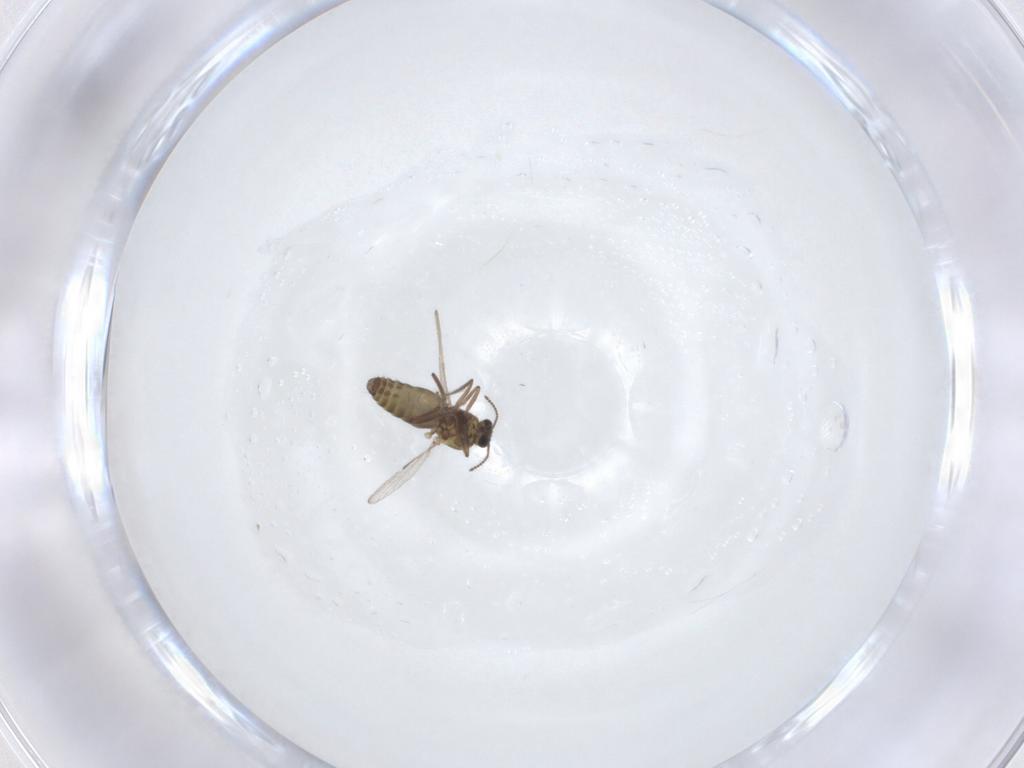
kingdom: Animalia
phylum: Arthropoda
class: Insecta
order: Diptera
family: Ceratopogonidae
